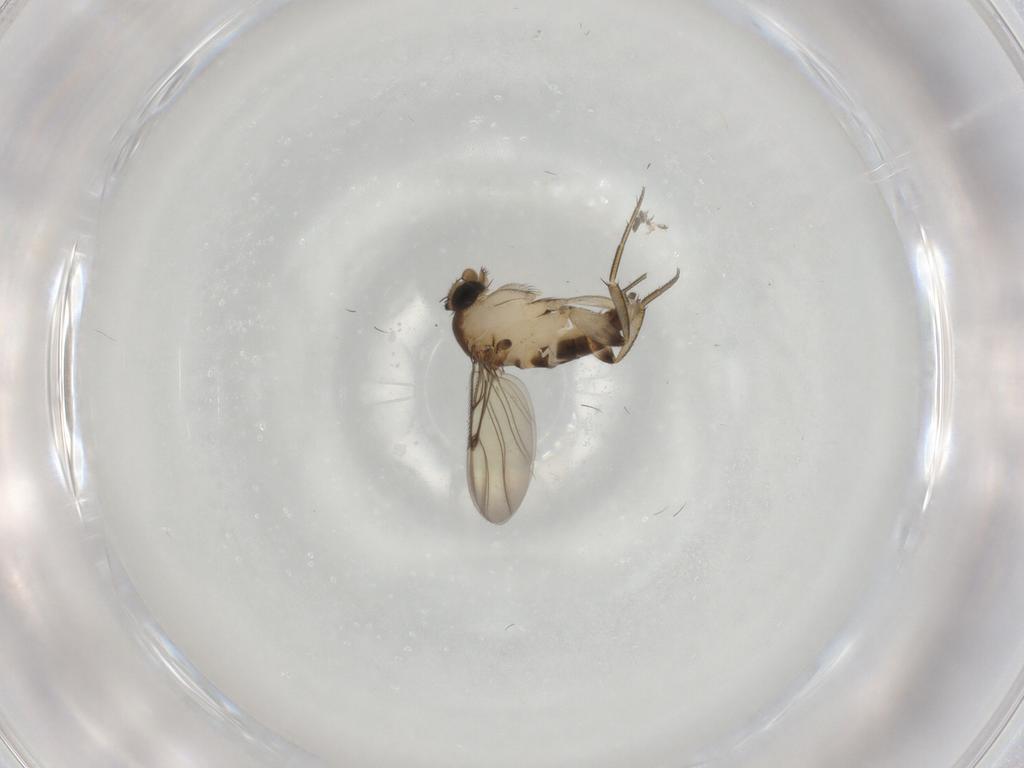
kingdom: Animalia
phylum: Arthropoda
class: Insecta
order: Diptera
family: Phoridae
